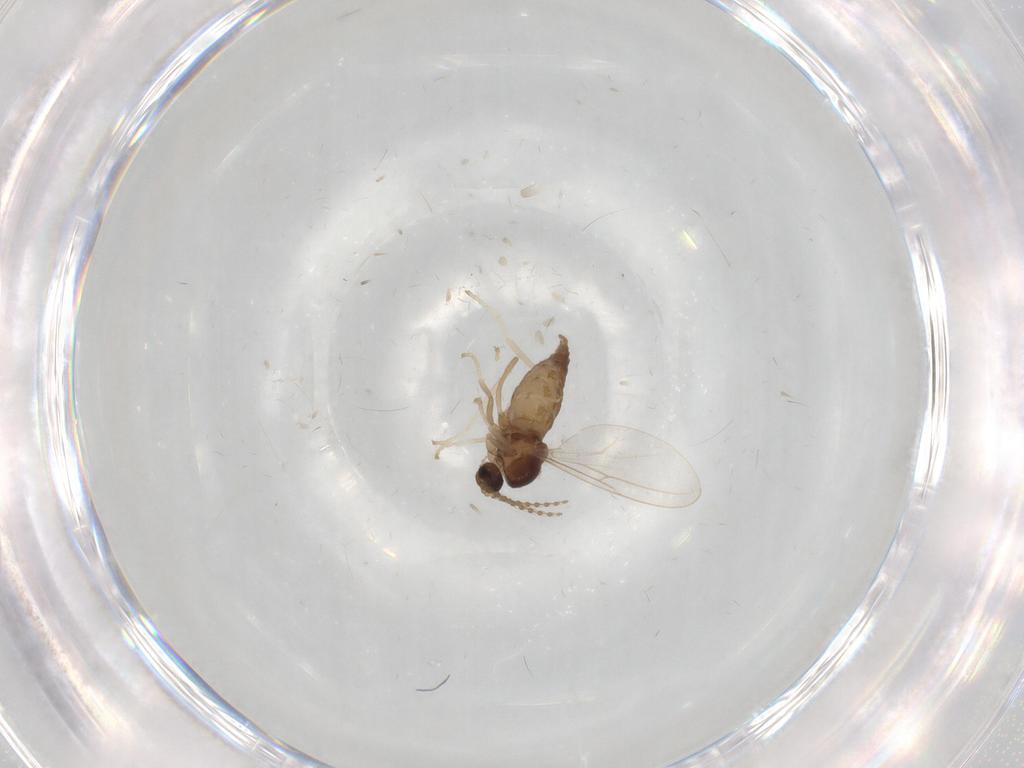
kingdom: Animalia
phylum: Arthropoda
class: Insecta
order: Diptera
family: Cecidomyiidae
